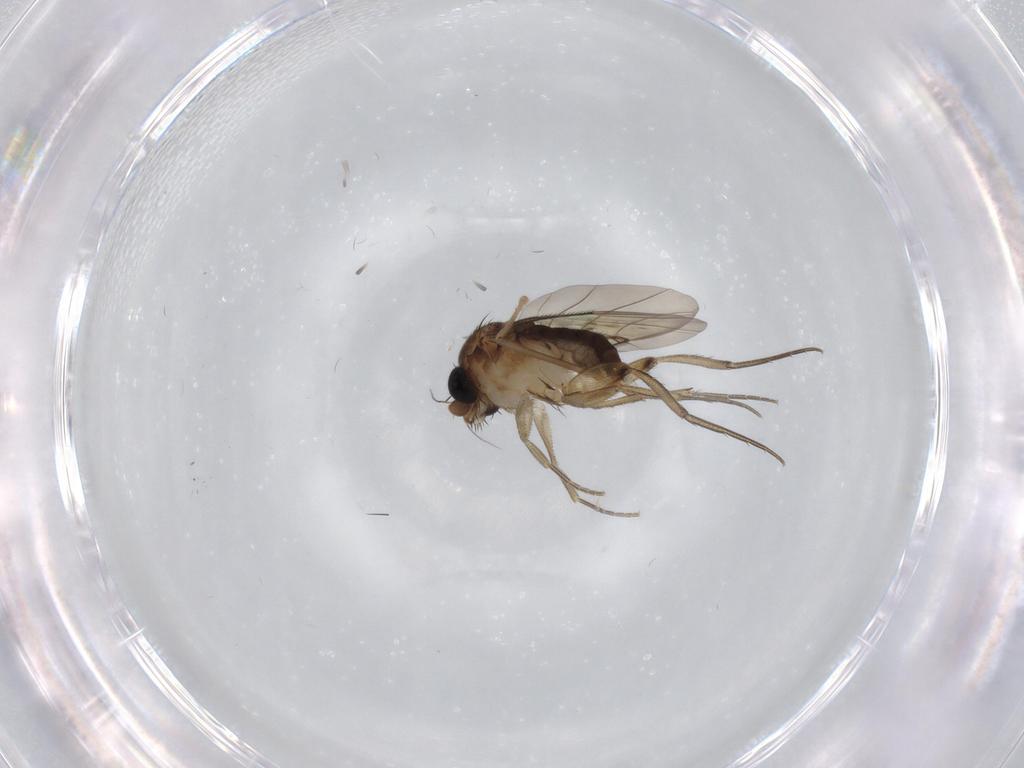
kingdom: Animalia
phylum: Arthropoda
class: Insecta
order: Diptera
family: Phoridae
